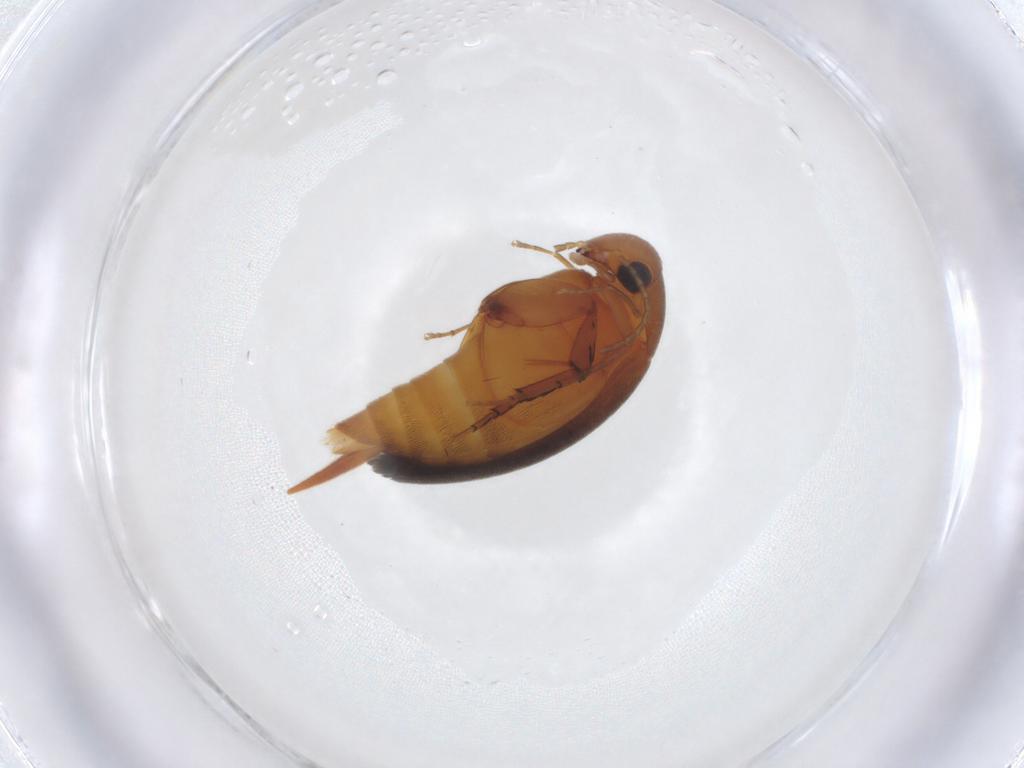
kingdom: Animalia
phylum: Arthropoda
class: Insecta
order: Coleoptera
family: Mordellidae
